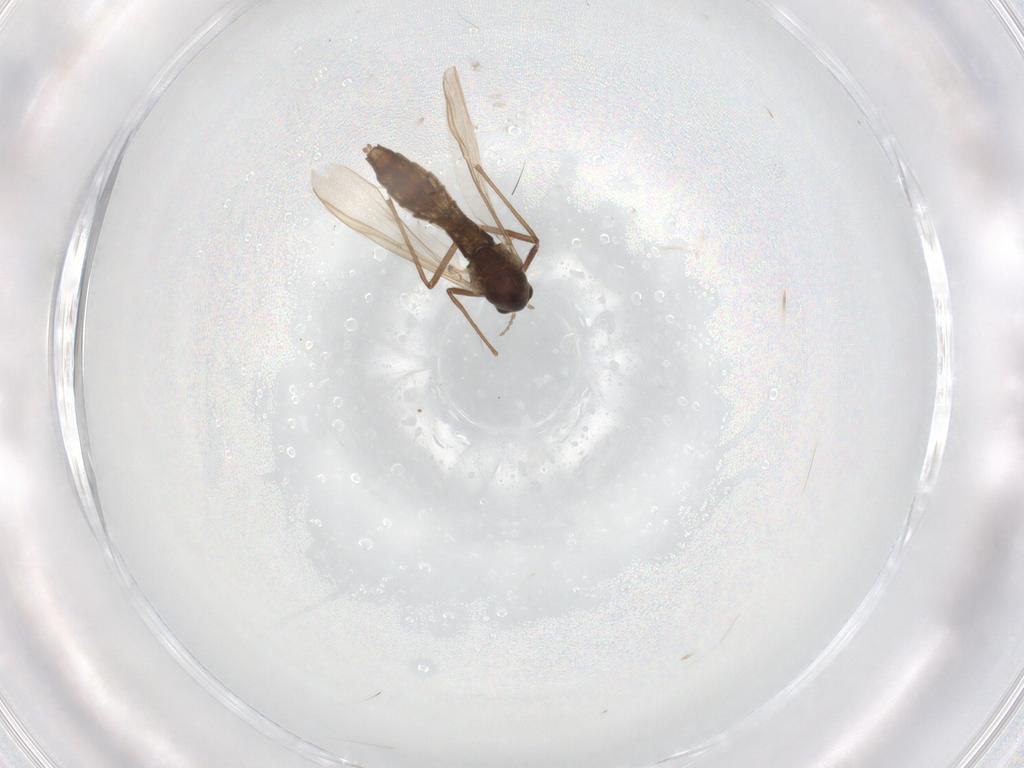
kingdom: Animalia
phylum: Arthropoda
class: Insecta
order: Diptera
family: Chironomidae
